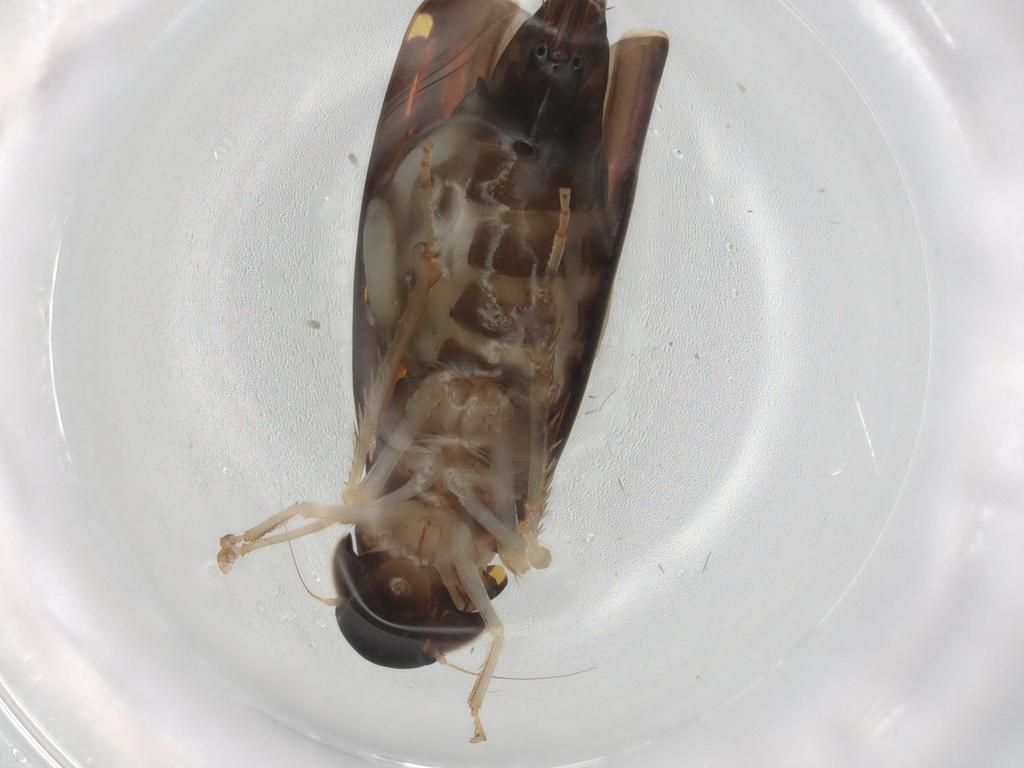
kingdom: Animalia
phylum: Arthropoda
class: Insecta
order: Hemiptera
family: Cicadellidae
